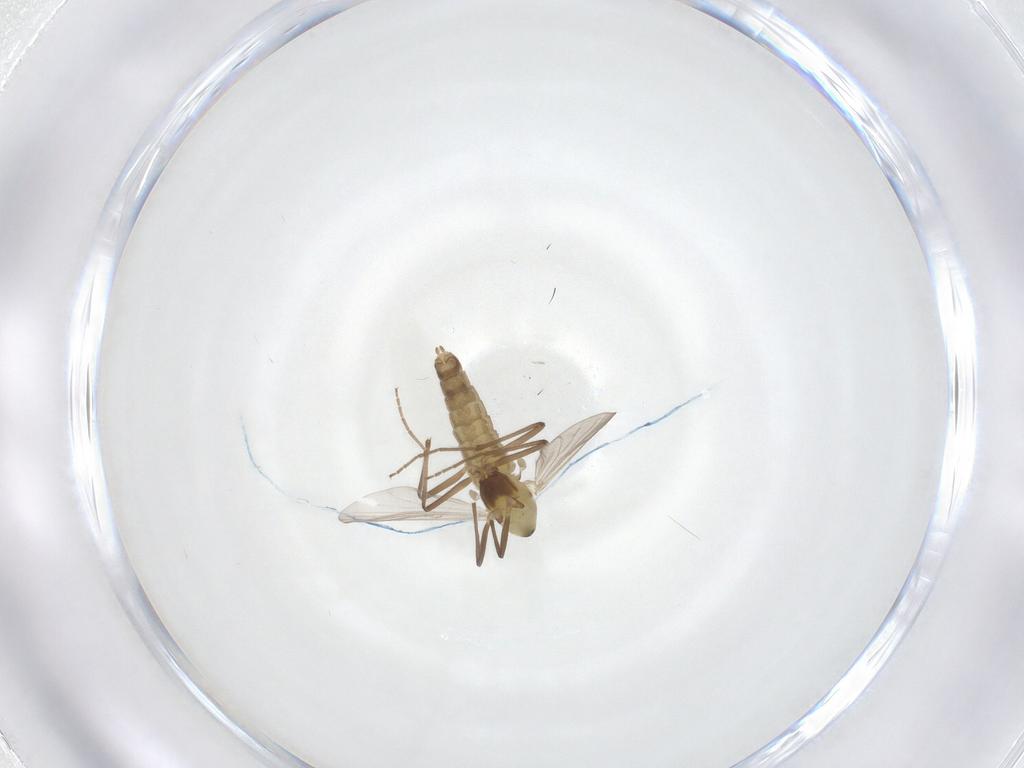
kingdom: Animalia
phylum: Arthropoda
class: Insecta
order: Diptera
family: Chironomidae
